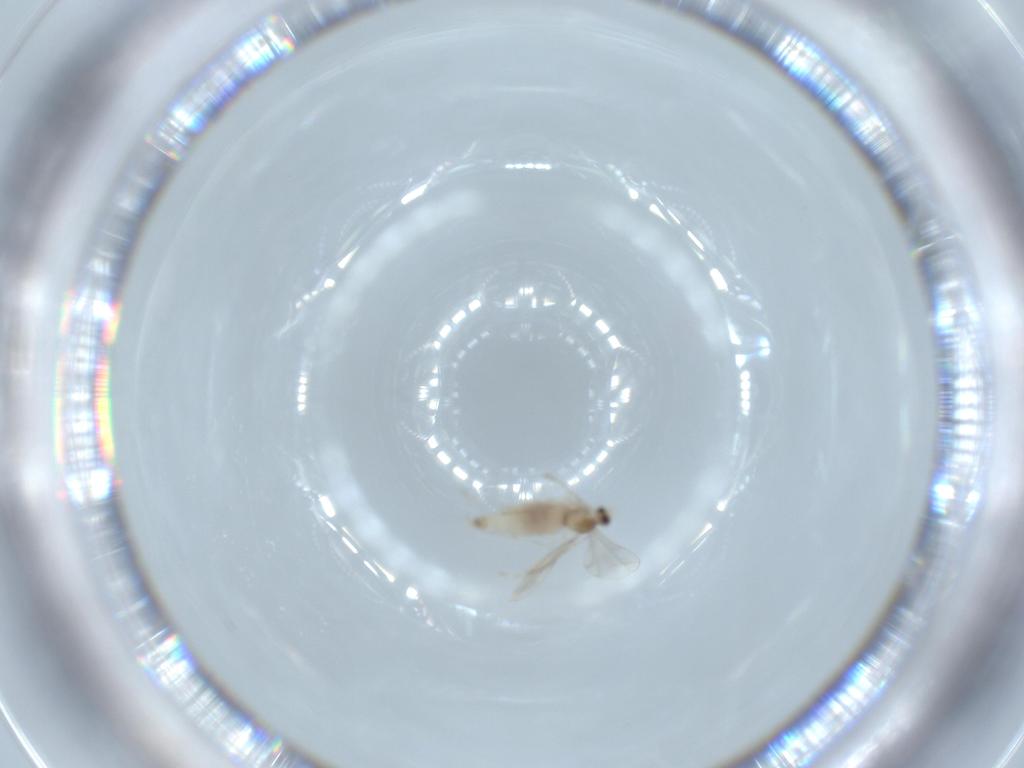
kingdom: Animalia
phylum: Arthropoda
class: Insecta
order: Diptera
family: Cecidomyiidae
